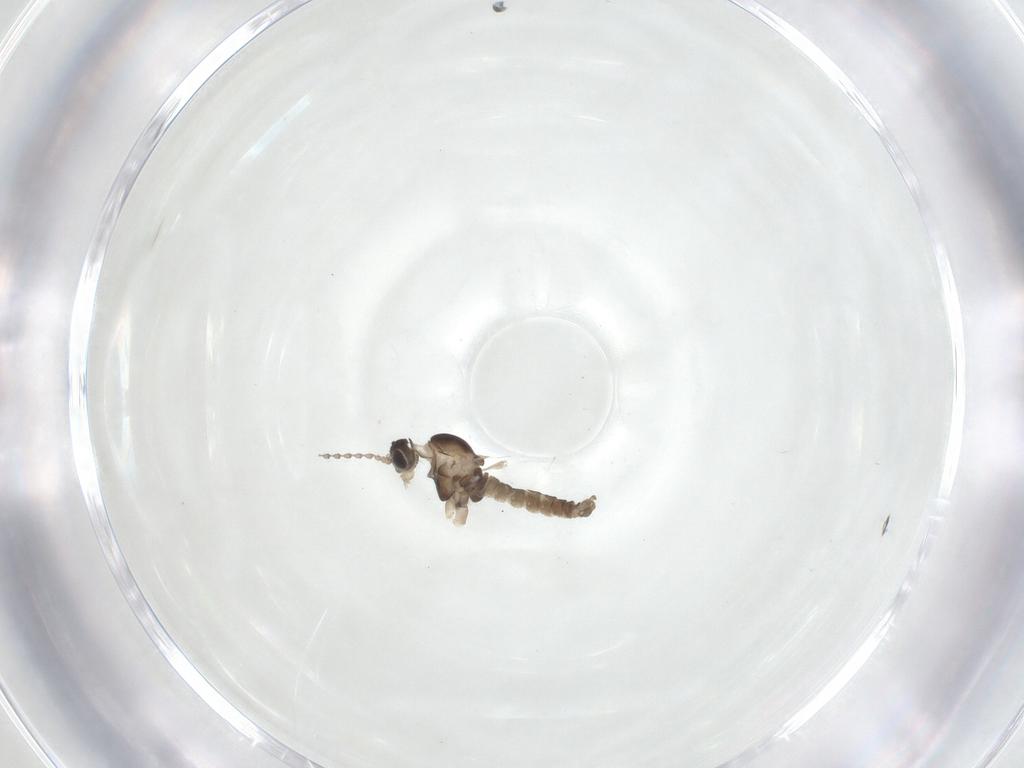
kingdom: Animalia
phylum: Arthropoda
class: Insecta
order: Diptera
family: Cecidomyiidae
